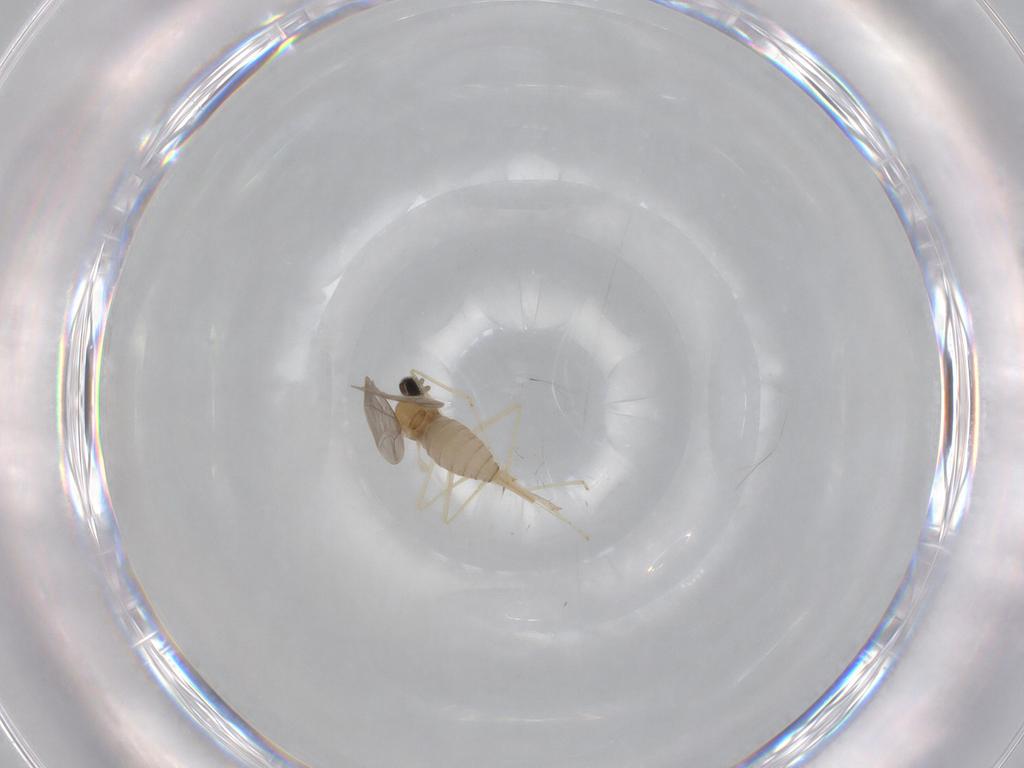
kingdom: Animalia
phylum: Arthropoda
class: Insecta
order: Diptera
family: Cecidomyiidae
